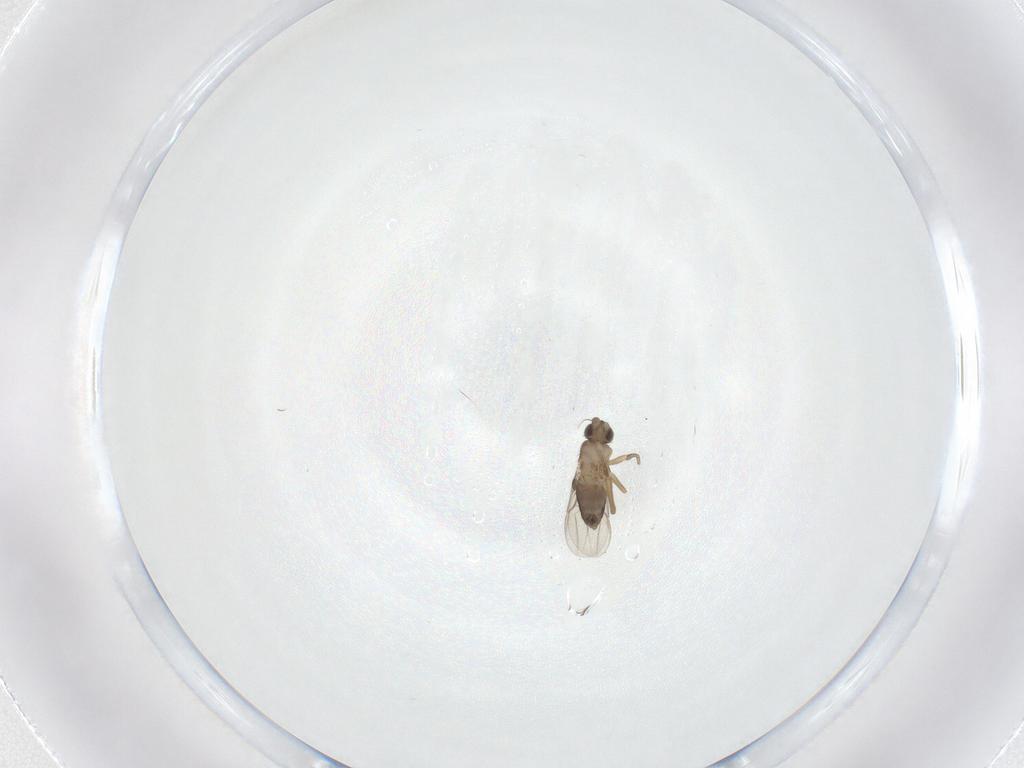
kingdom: Animalia
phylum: Arthropoda
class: Insecta
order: Diptera
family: Phoridae
